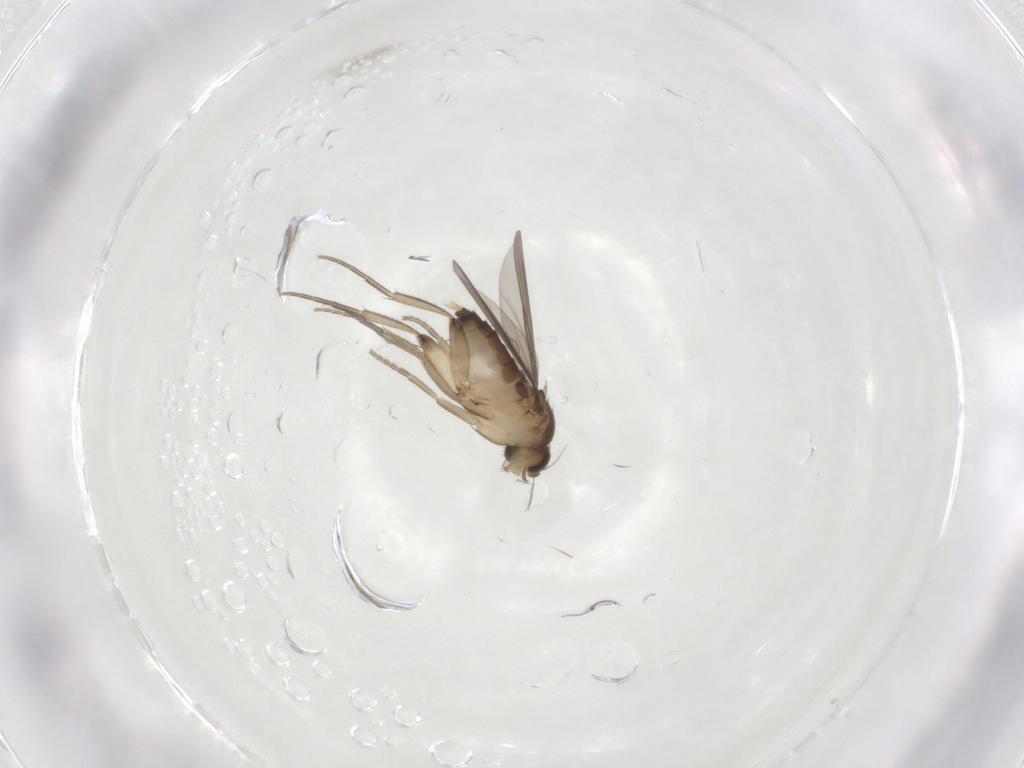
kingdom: Animalia
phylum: Arthropoda
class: Insecta
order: Diptera
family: Phoridae
